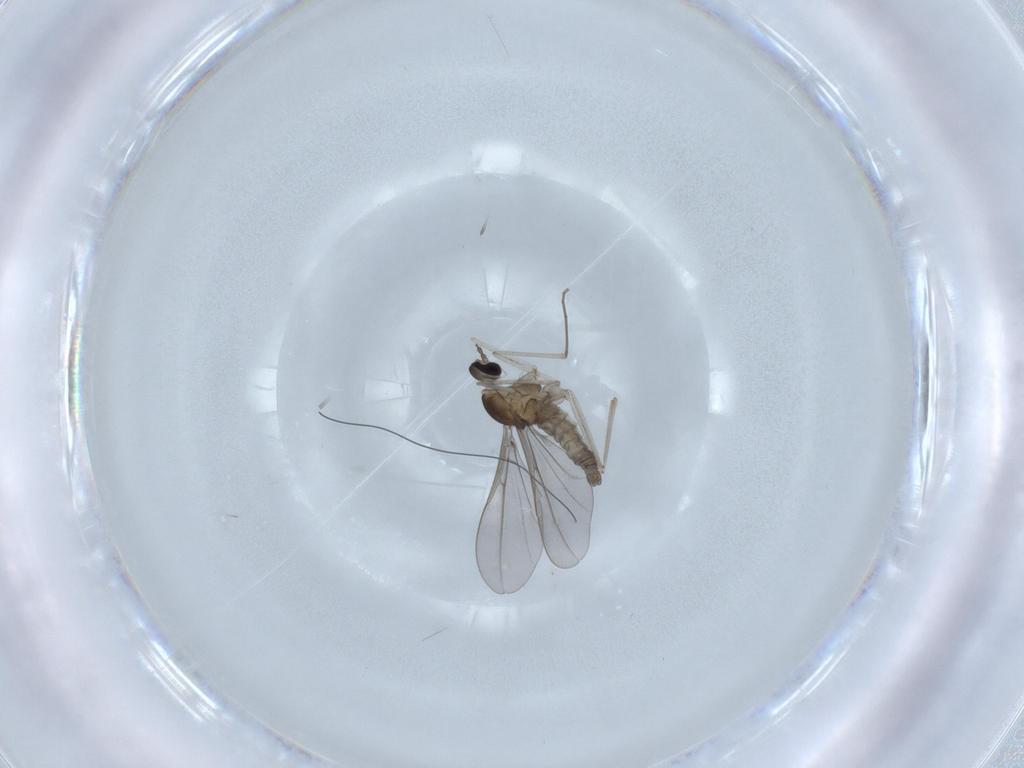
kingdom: Animalia
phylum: Arthropoda
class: Insecta
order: Diptera
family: Cecidomyiidae
